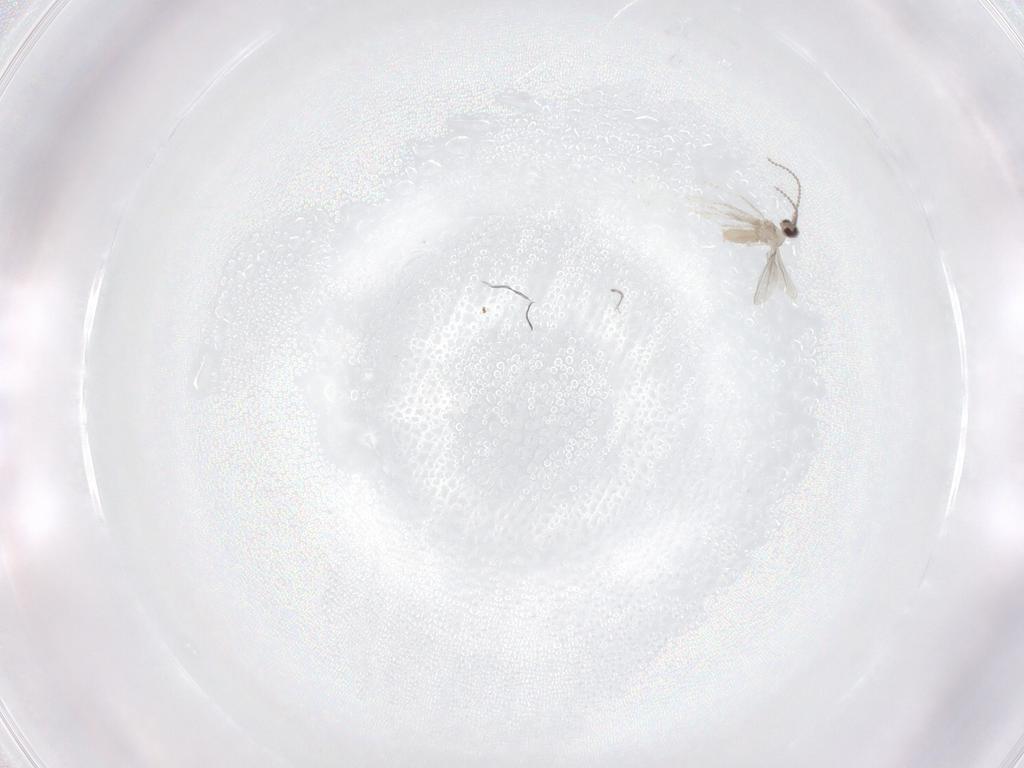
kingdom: Animalia
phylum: Arthropoda
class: Insecta
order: Diptera
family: Cecidomyiidae
